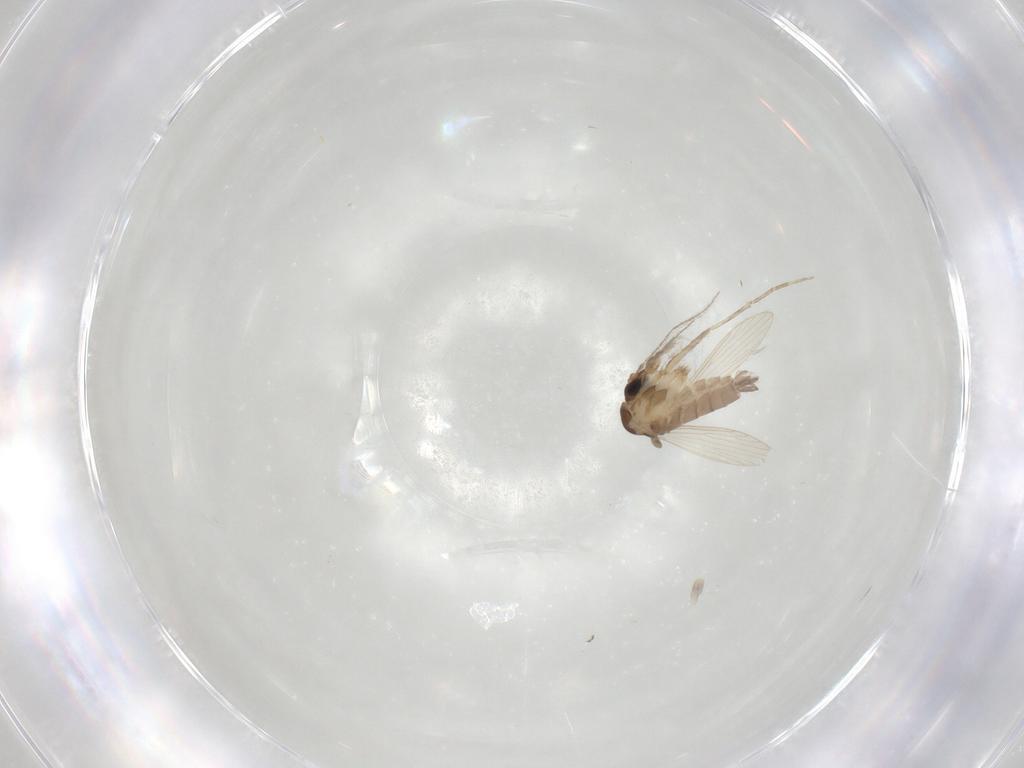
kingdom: Animalia
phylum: Arthropoda
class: Insecta
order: Diptera
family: Psychodidae
